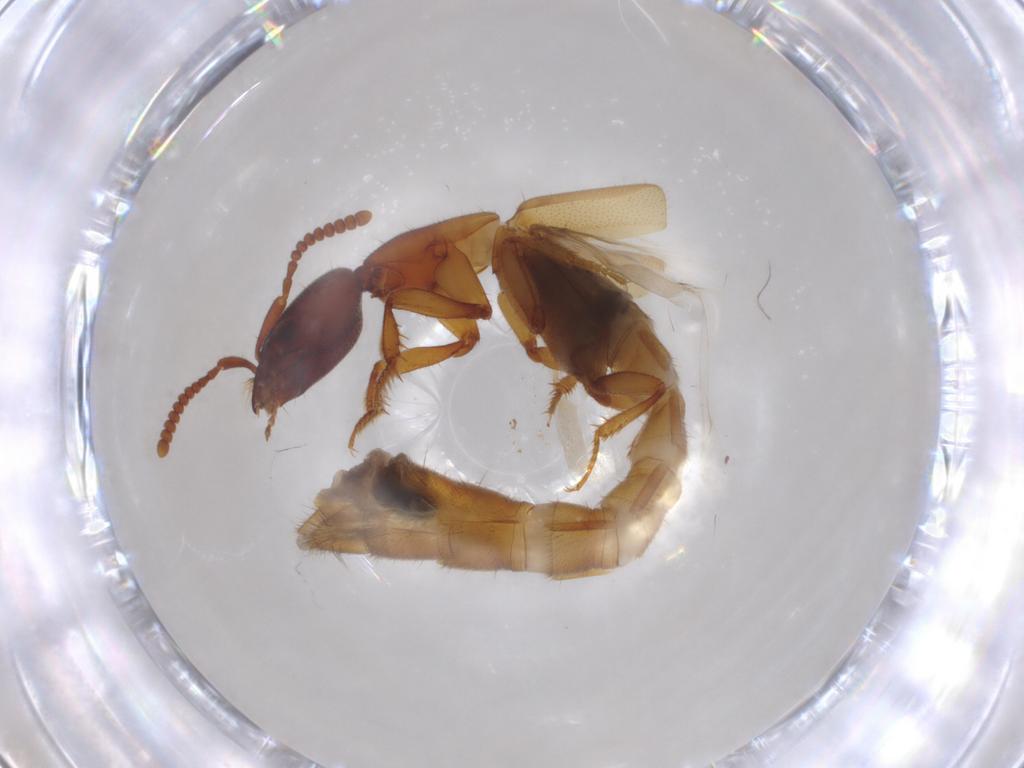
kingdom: Animalia
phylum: Arthropoda
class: Insecta
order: Coleoptera
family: Staphylinidae
